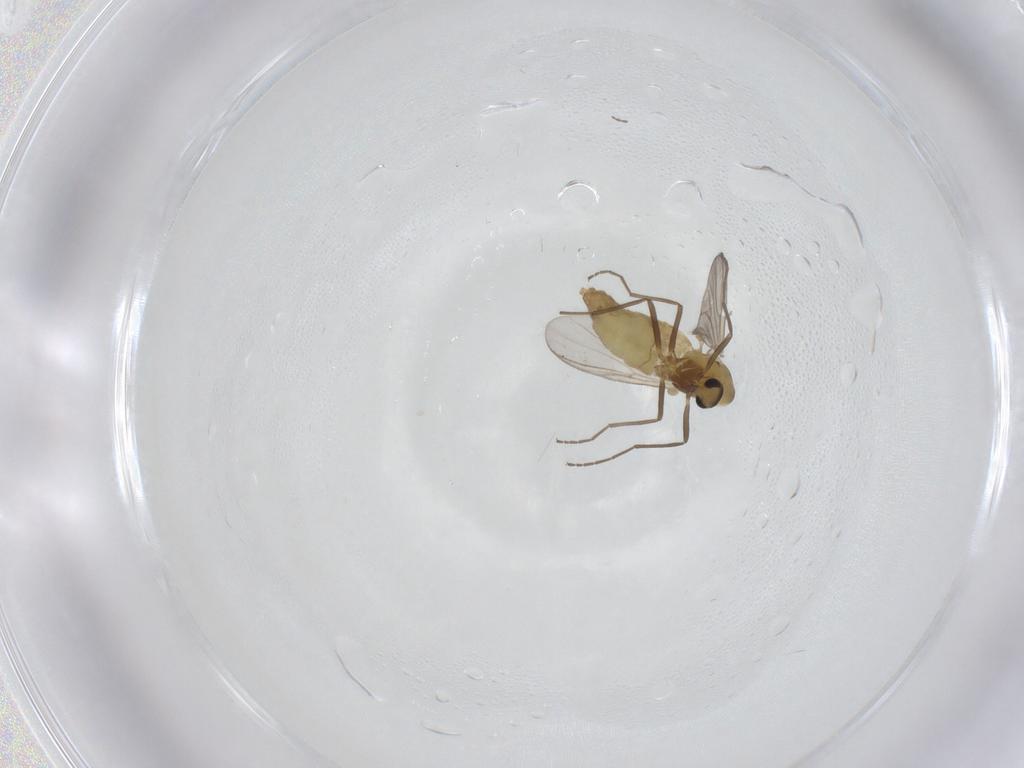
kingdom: Animalia
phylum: Arthropoda
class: Insecta
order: Diptera
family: Chironomidae
